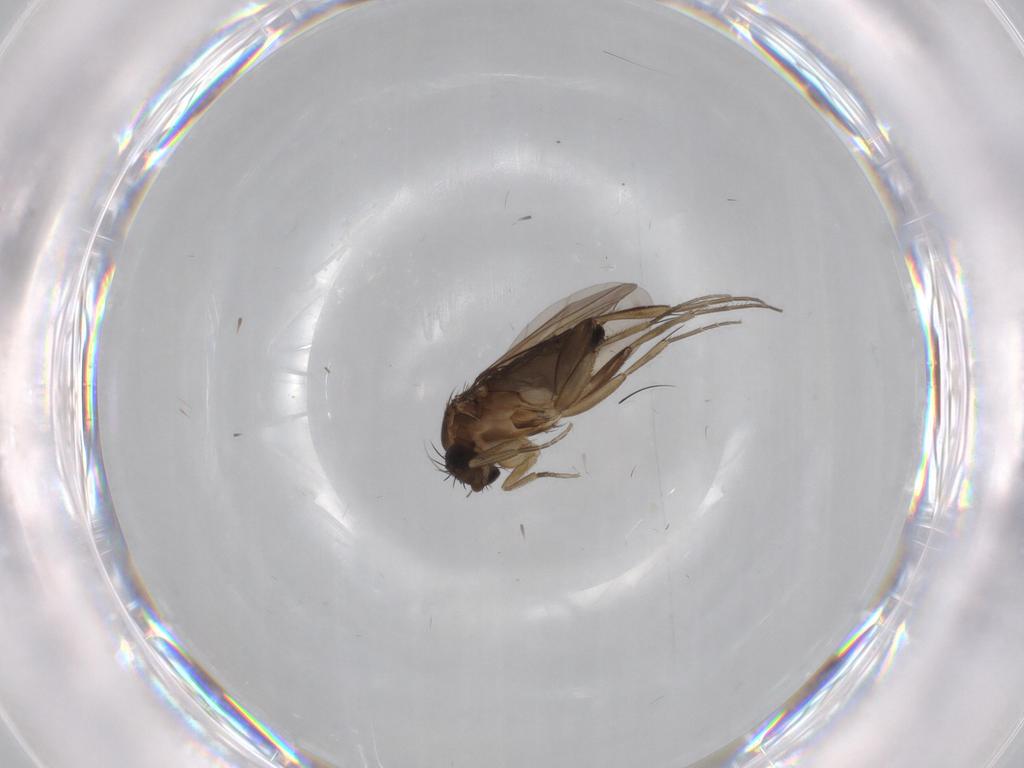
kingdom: Animalia
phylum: Arthropoda
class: Insecta
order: Diptera
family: Phoridae
